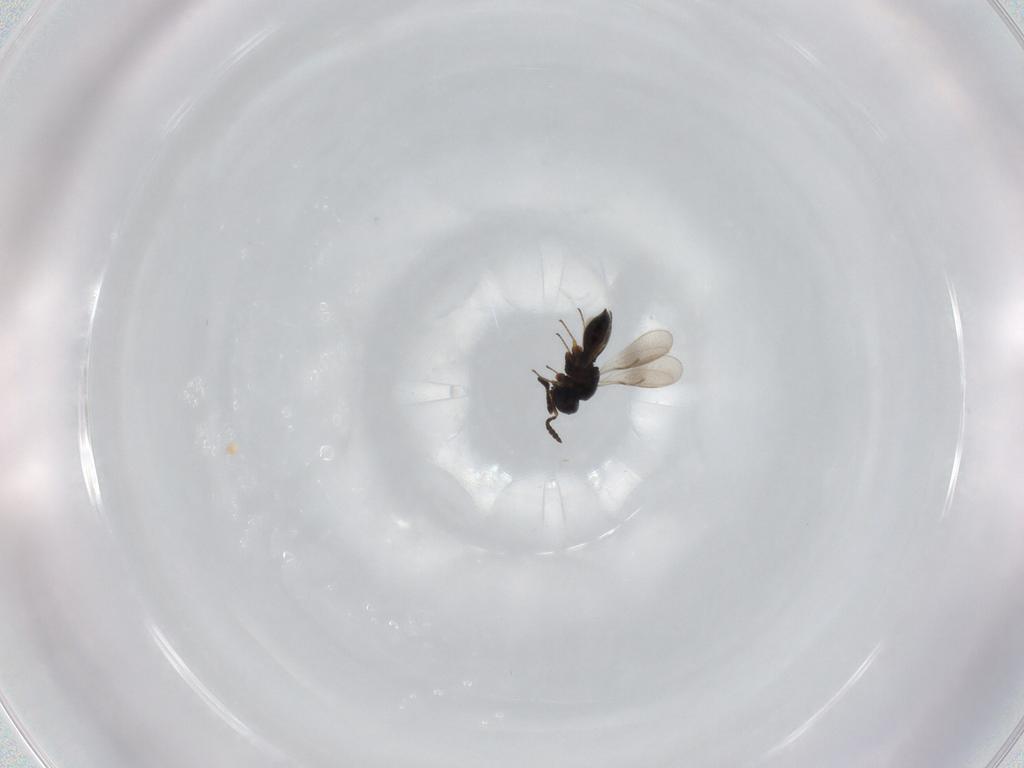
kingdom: Animalia
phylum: Arthropoda
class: Insecta
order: Hymenoptera
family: Scelionidae
